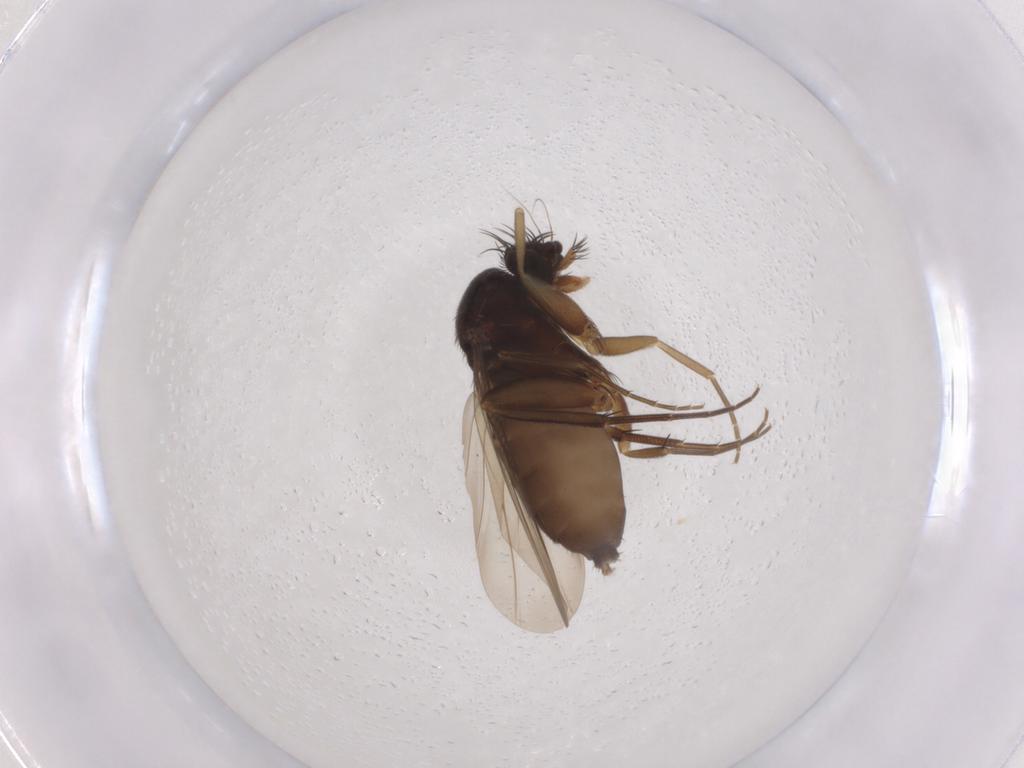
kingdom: Animalia
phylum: Arthropoda
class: Insecta
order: Diptera
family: Phoridae
